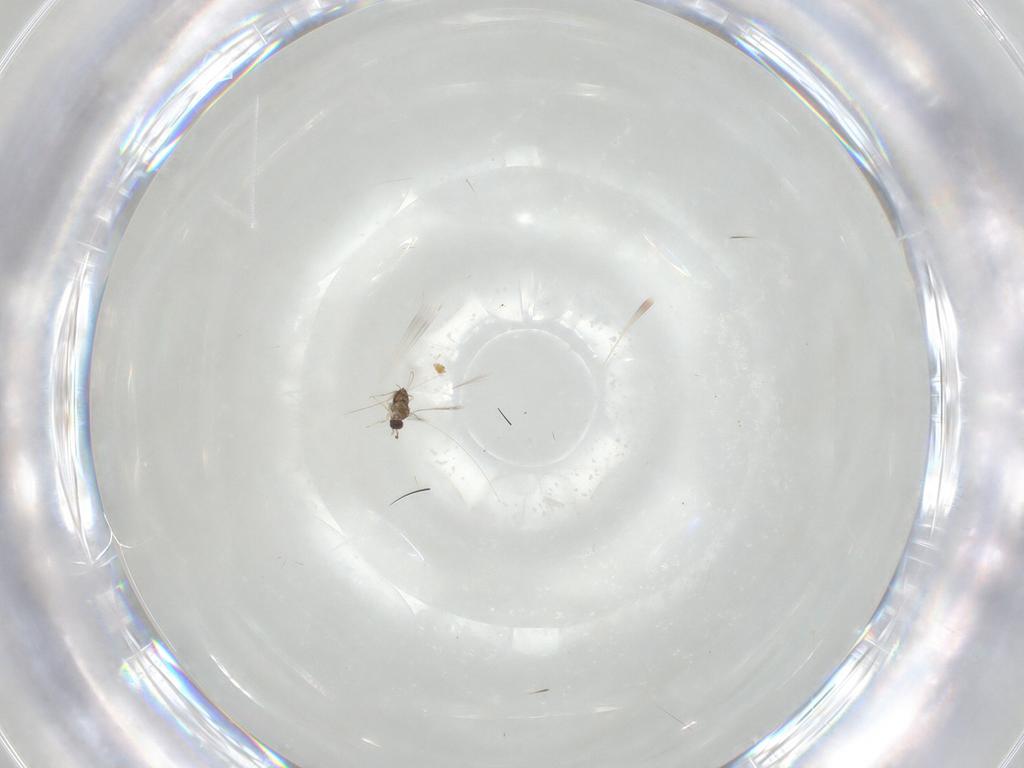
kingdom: Animalia
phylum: Arthropoda
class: Insecta
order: Hymenoptera
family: Mymaridae
